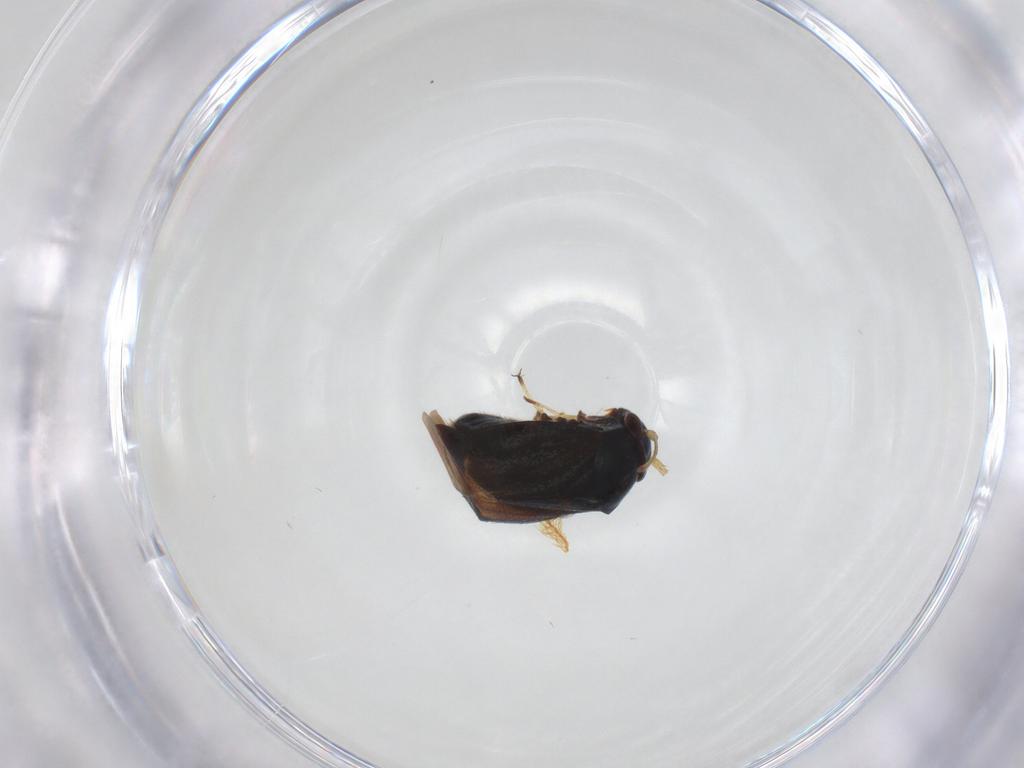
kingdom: Animalia
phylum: Arthropoda
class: Insecta
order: Hemiptera
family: Miridae
